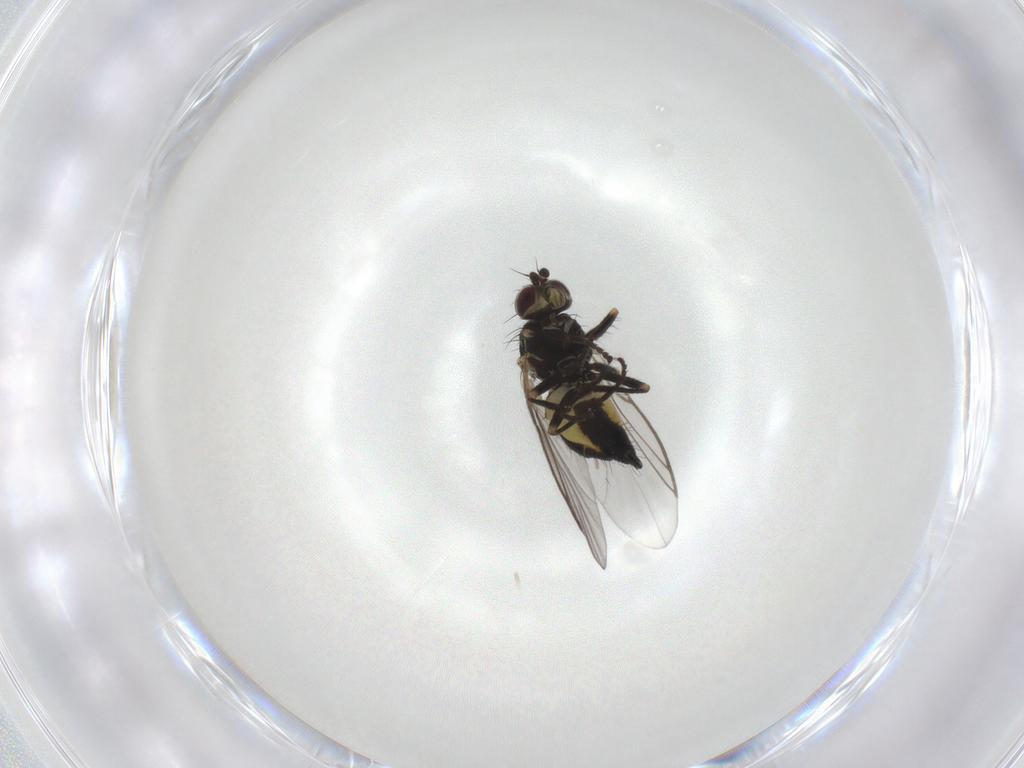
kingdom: Animalia
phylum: Arthropoda
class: Insecta
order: Diptera
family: Agromyzidae
